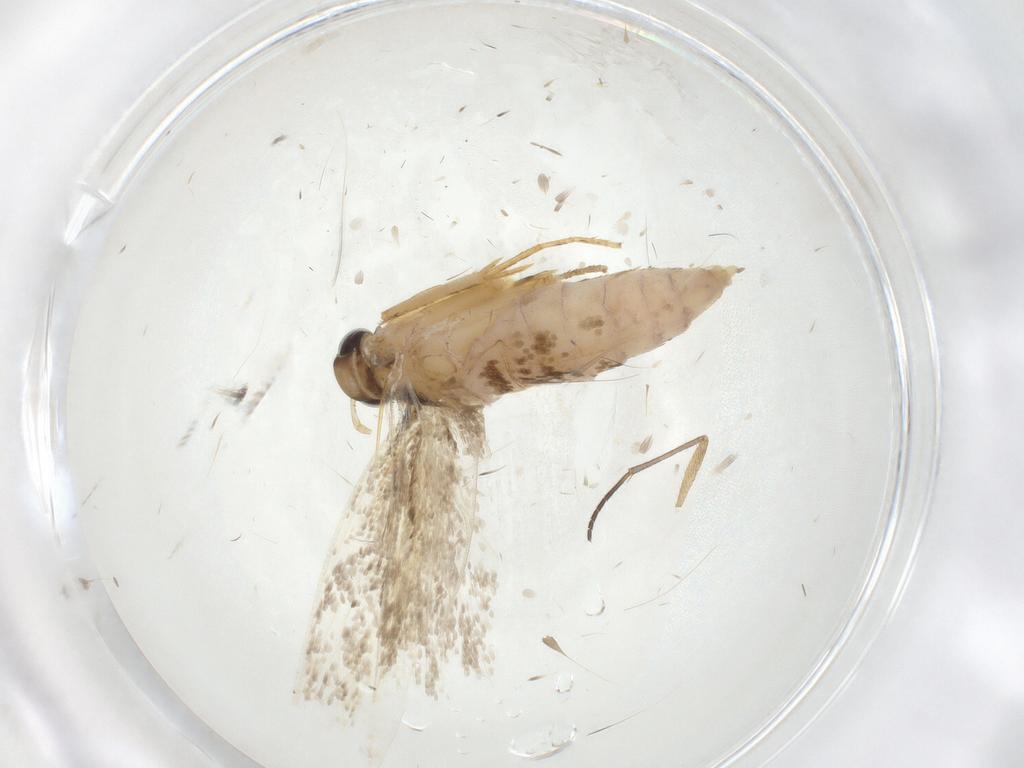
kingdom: Animalia
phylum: Arthropoda
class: Insecta
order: Lepidoptera
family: Gelechiidae
